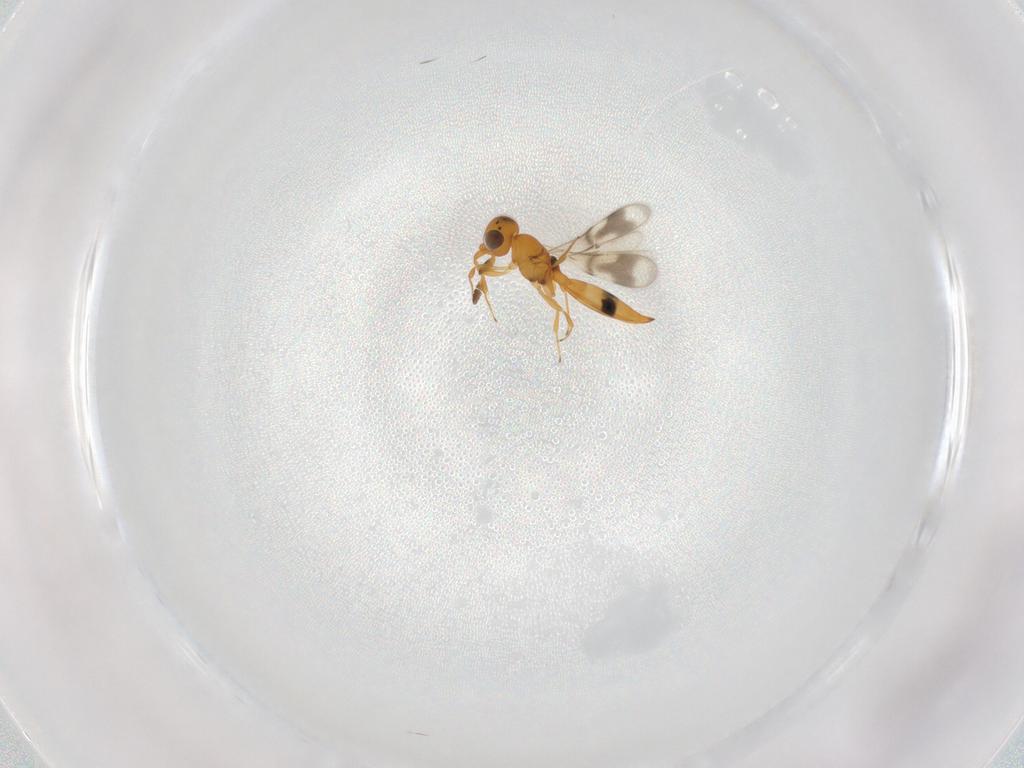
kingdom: Animalia
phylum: Arthropoda
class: Insecta
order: Hymenoptera
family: Scelionidae
